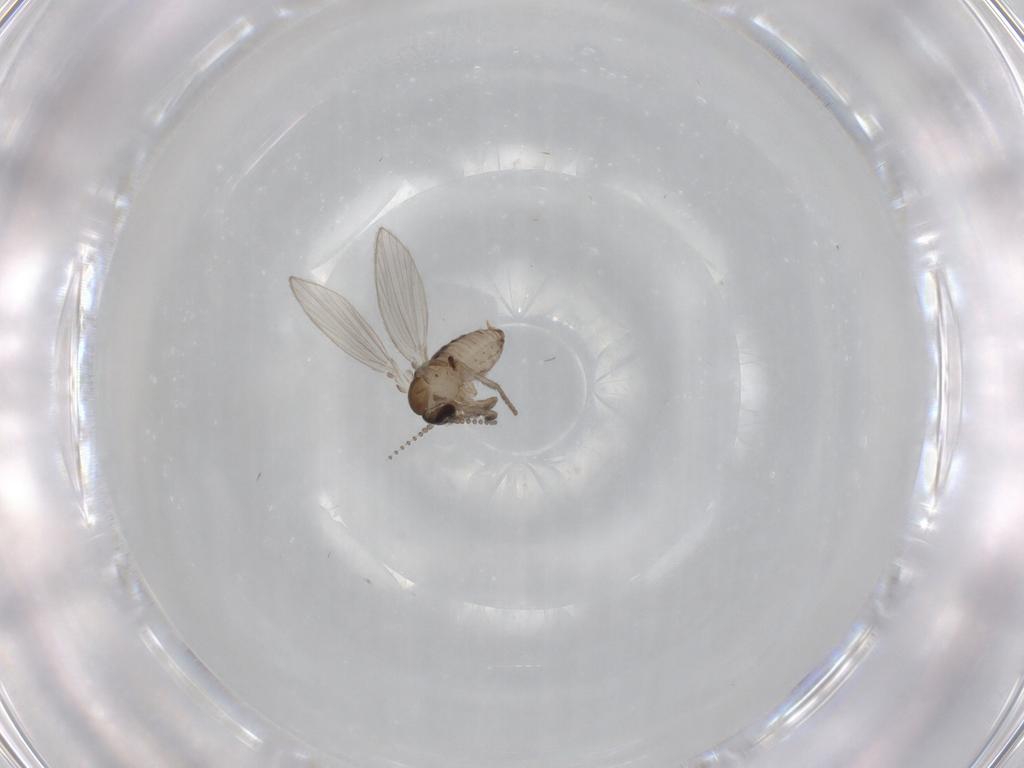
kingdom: Animalia
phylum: Arthropoda
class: Insecta
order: Diptera
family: Psychodidae
